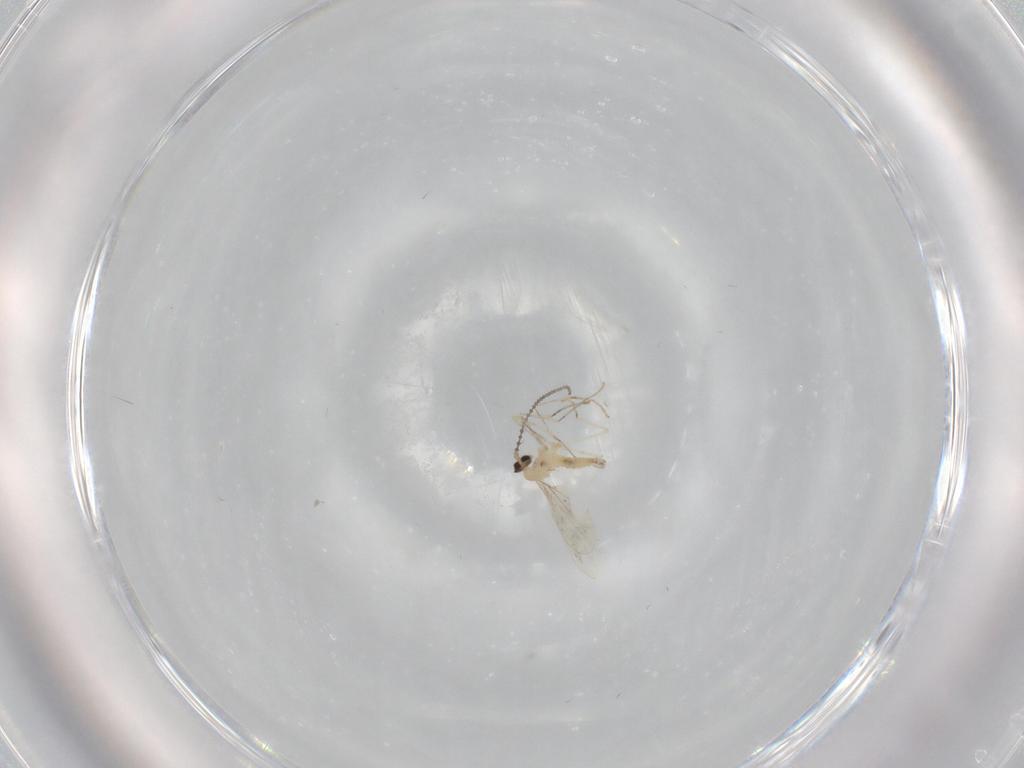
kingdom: Animalia
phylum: Arthropoda
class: Insecta
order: Diptera
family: Cecidomyiidae
